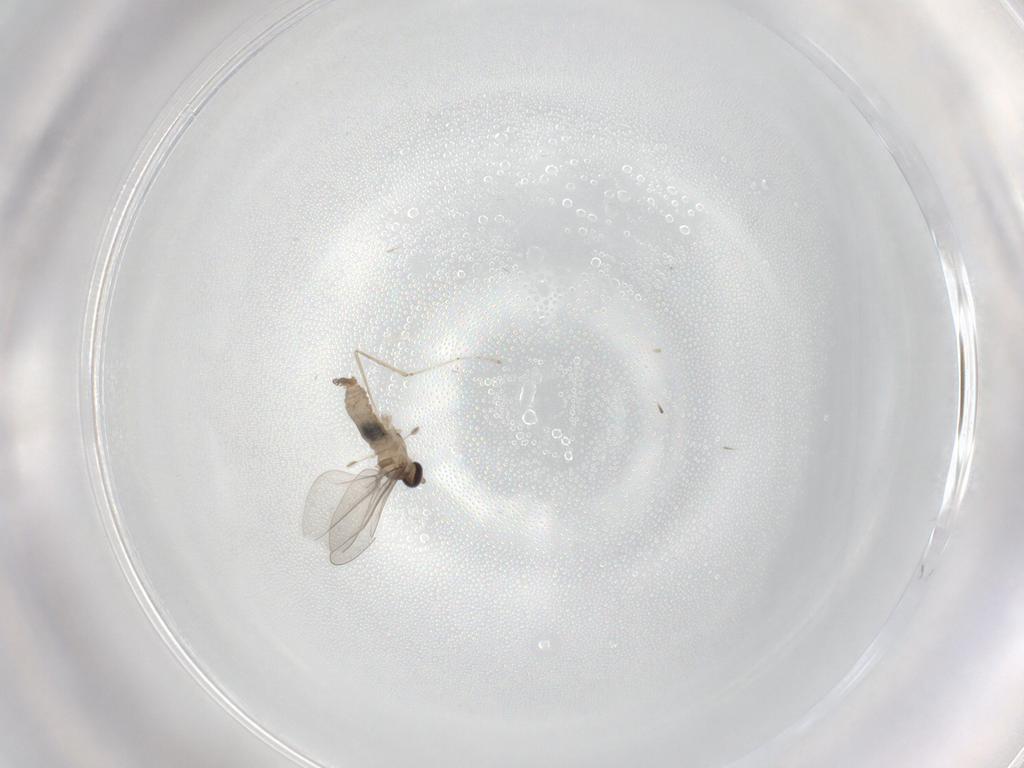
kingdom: Animalia
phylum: Arthropoda
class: Insecta
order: Diptera
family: Cecidomyiidae
